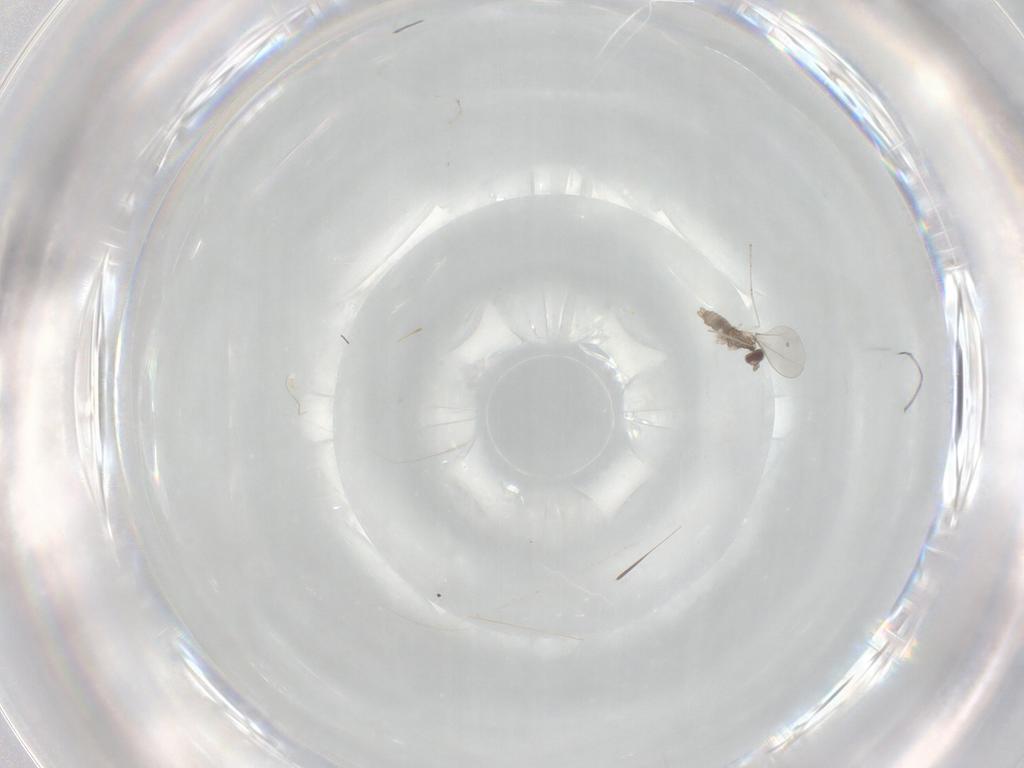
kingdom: Animalia
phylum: Arthropoda
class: Insecta
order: Diptera
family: Cecidomyiidae
